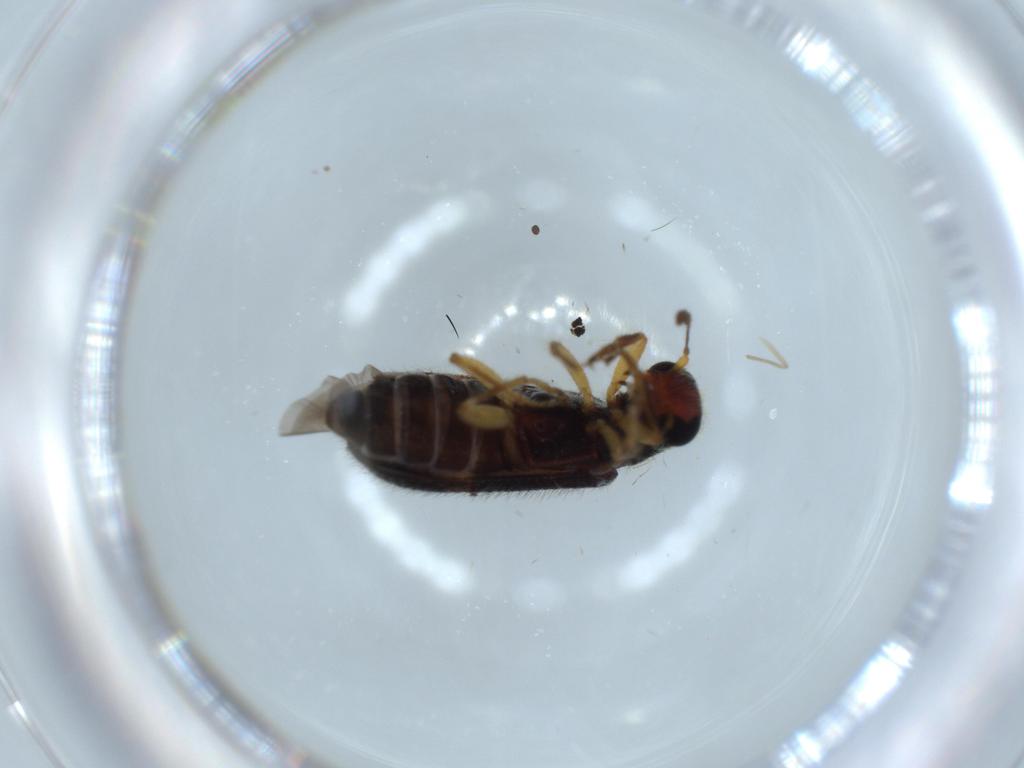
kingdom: Animalia
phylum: Arthropoda
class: Insecta
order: Coleoptera
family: Cleridae
